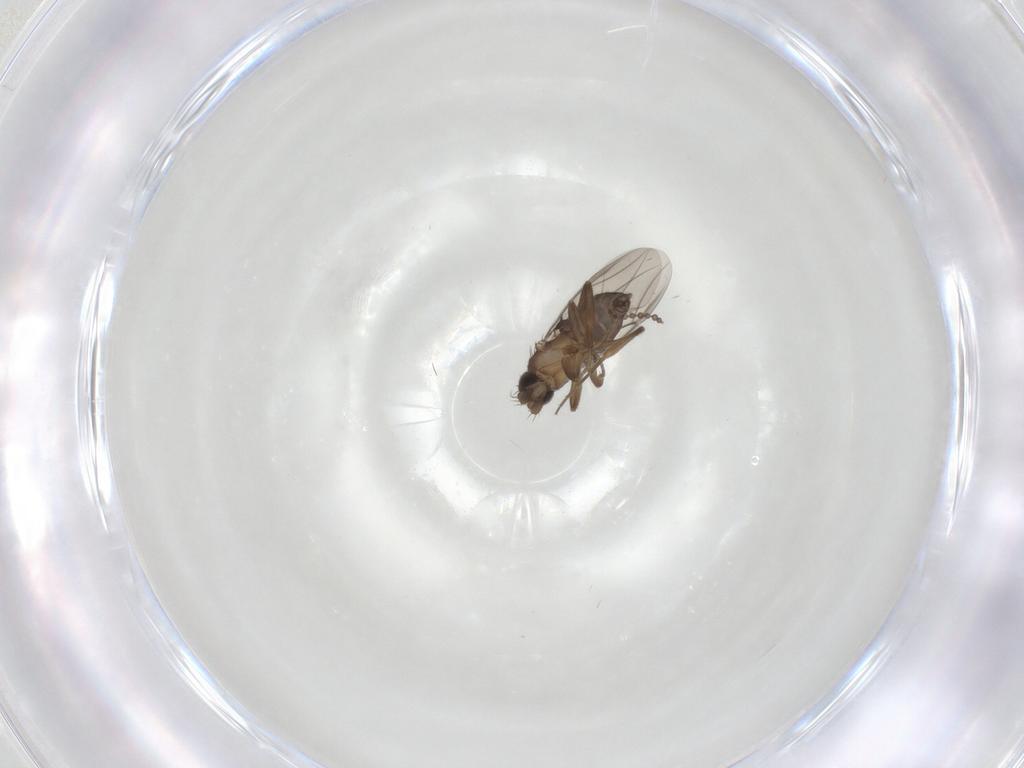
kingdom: Animalia
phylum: Arthropoda
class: Insecta
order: Diptera
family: Phoridae
